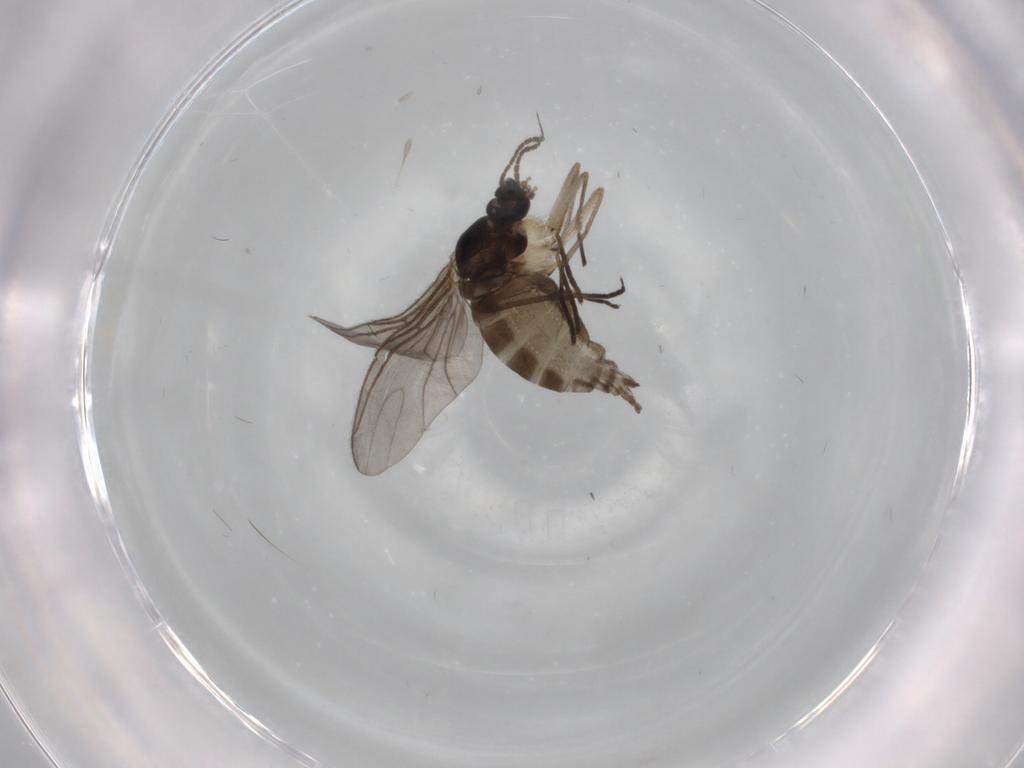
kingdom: Animalia
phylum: Arthropoda
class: Insecta
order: Diptera
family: Sciaridae
